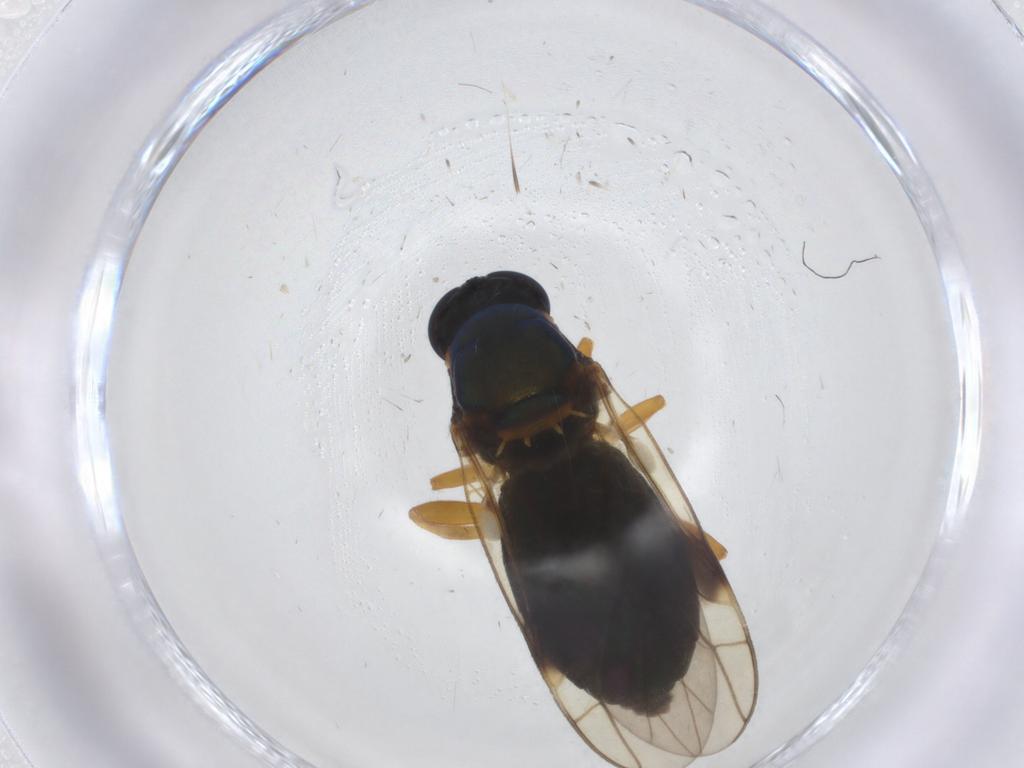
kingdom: Animalia
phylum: Arthropoda
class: Insecta
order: Diptera
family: Stratiomyidae
